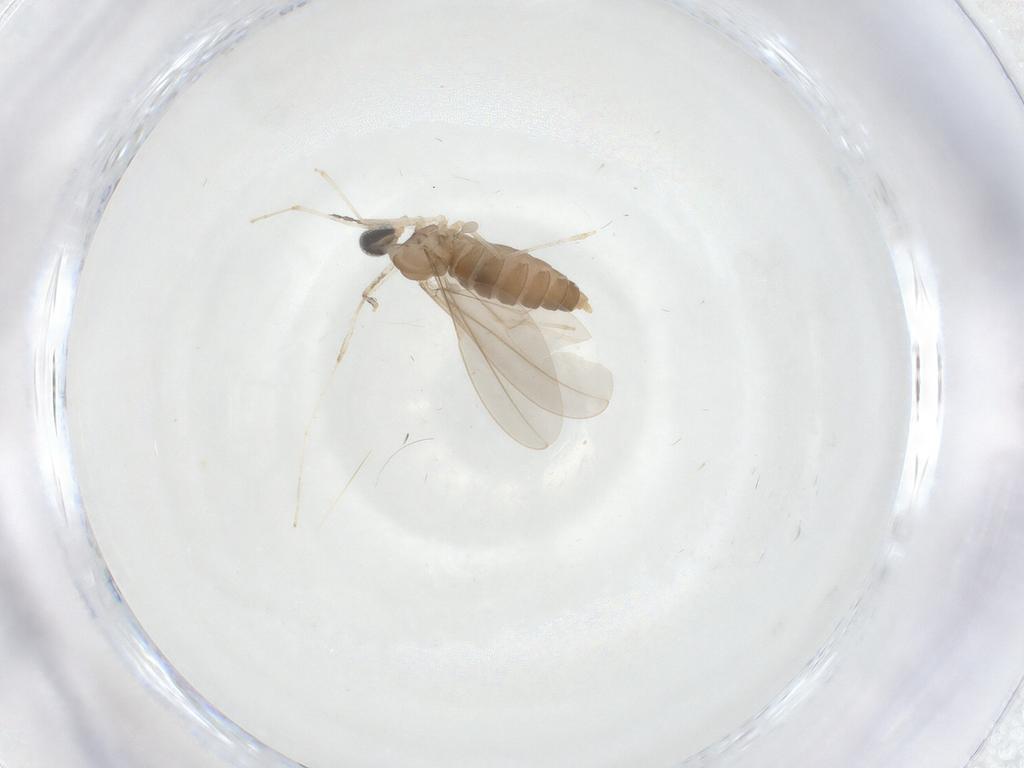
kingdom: Animalia
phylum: Arthropoda
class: Insecta
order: Diptera
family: Cecidomyiidae
